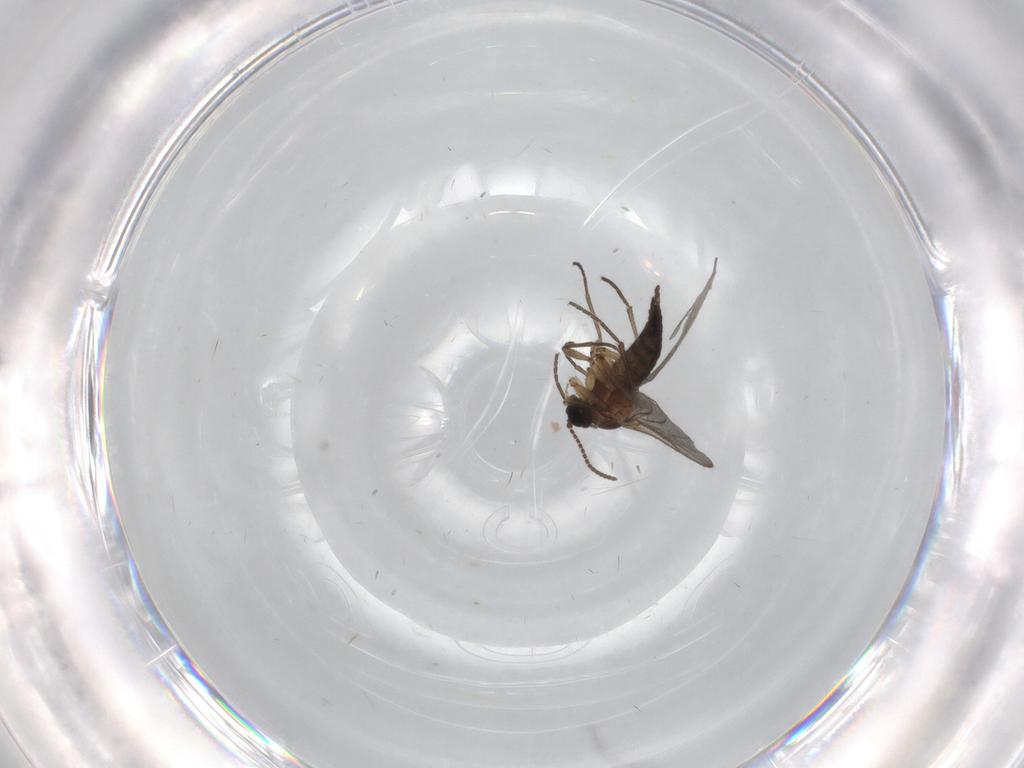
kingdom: Animalia
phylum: Arthropoda
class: Insecta
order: Diptera
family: Sciaridae
